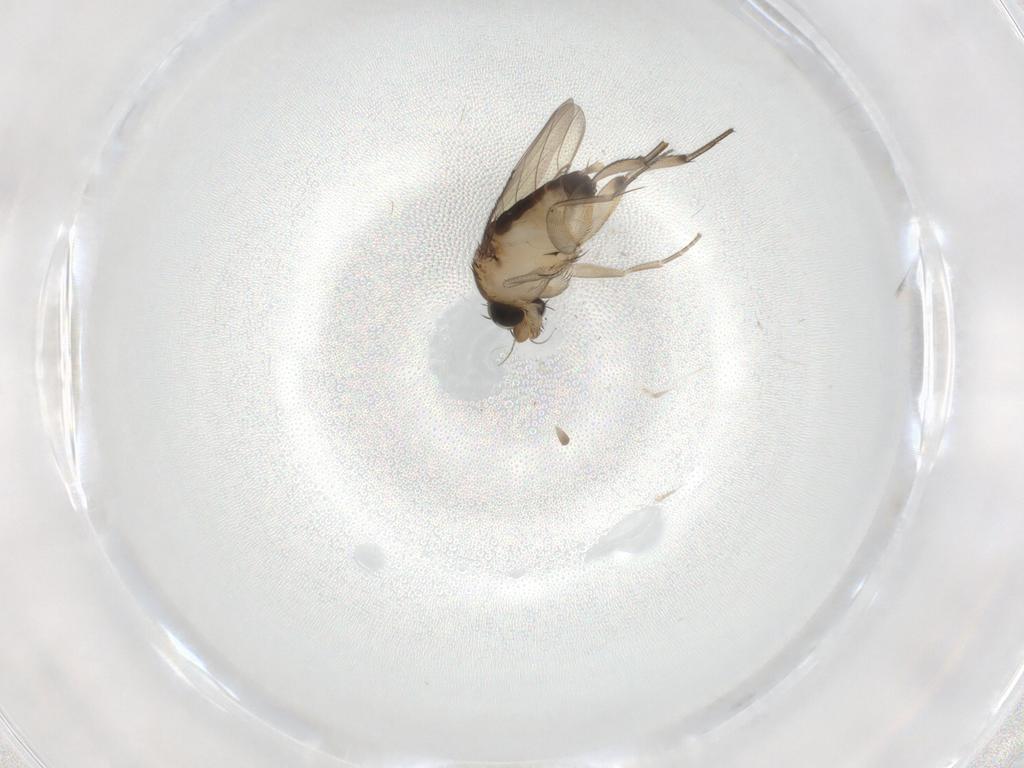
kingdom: Animalia
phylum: Arthropoda
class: Insecta
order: Diptera
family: Phoridae
